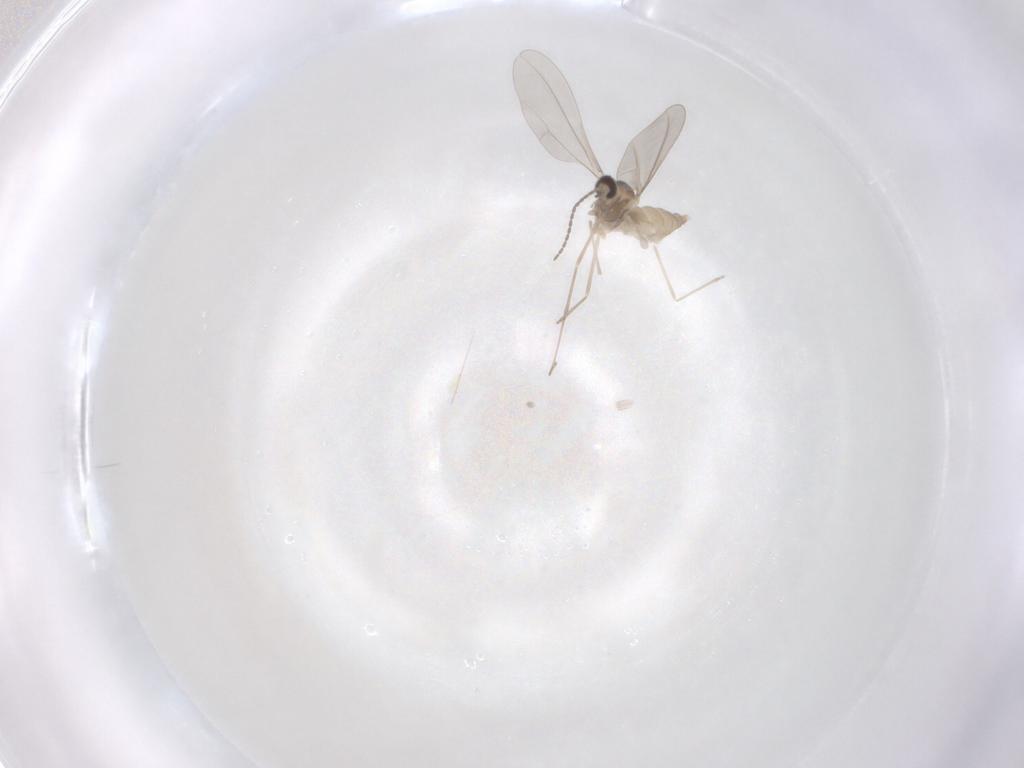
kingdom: Animalia
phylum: Arthropoda
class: Insecta
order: Diptera
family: Cecidomyiidae
